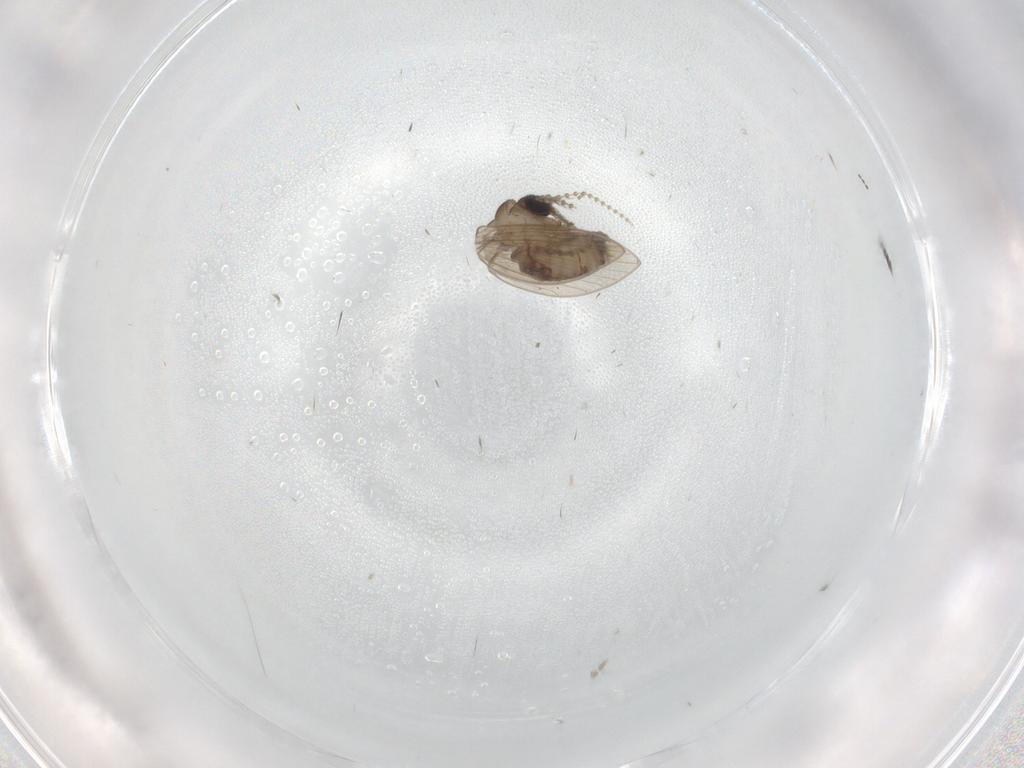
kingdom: Animalia
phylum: Arthropoda
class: Insecta
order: Diptera
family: Psychodidae
